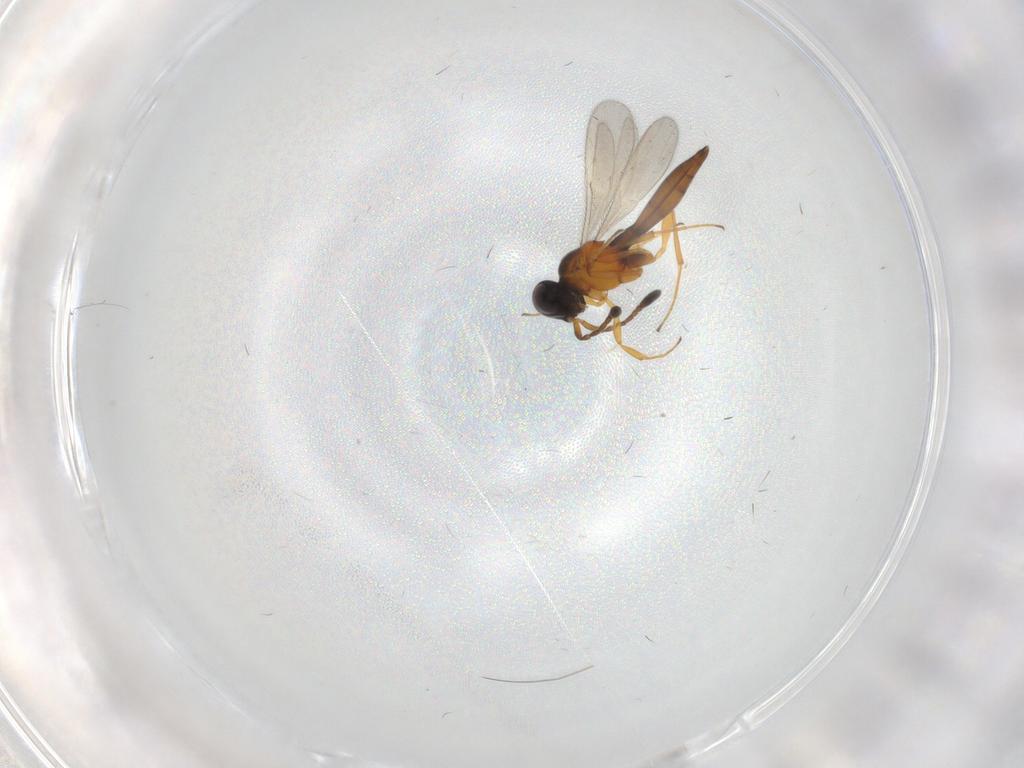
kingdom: Animalia
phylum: Arthropoda
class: Insecta
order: Hymenoptera
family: Scelionidae
